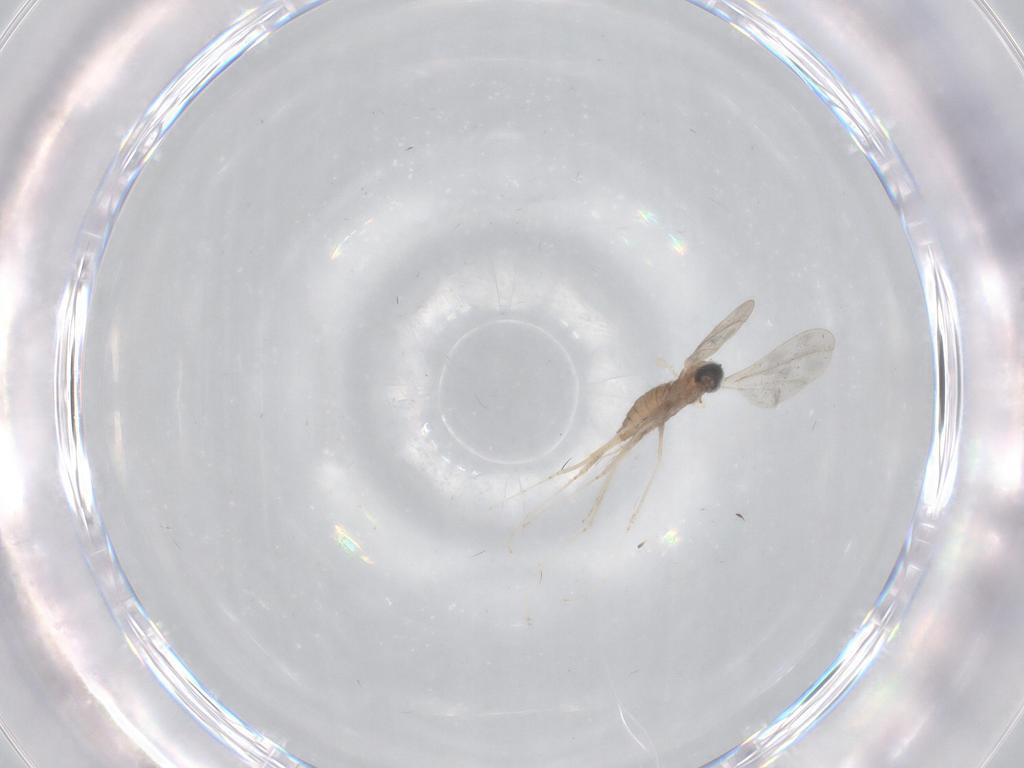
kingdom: Animalia
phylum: Arthropoda
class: Insecta
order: Diptera
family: Cecidomyiidae
